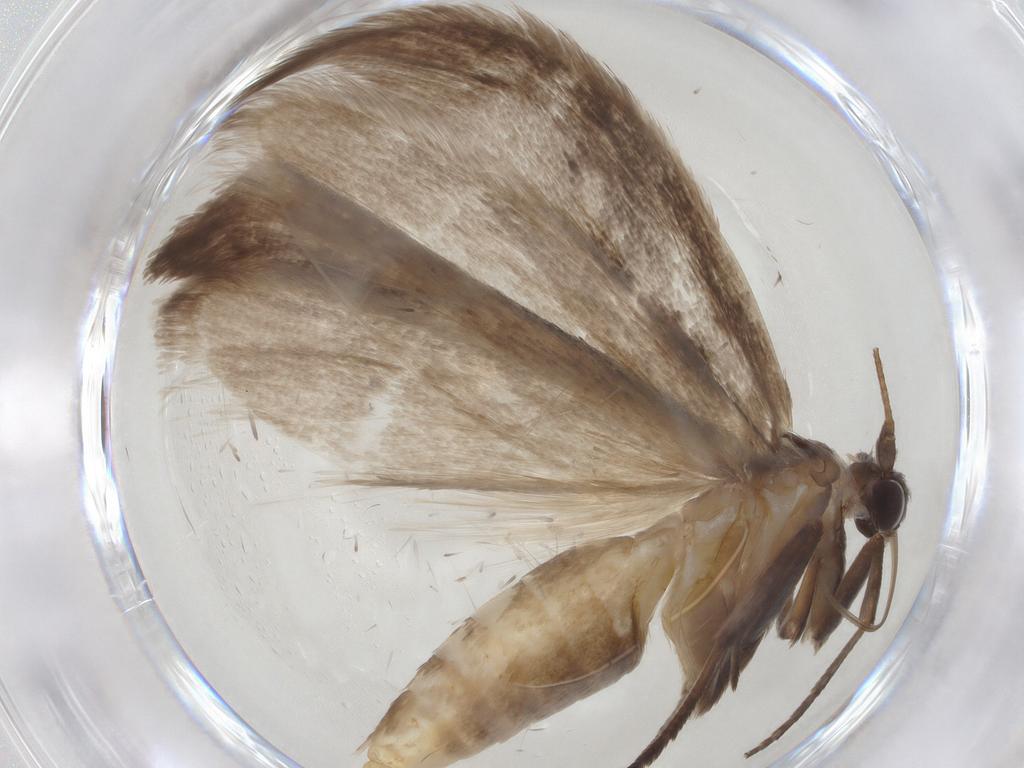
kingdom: Animalia
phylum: Arthropoda
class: Insecta
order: Lepidoptera
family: Roeslerstammiidae
